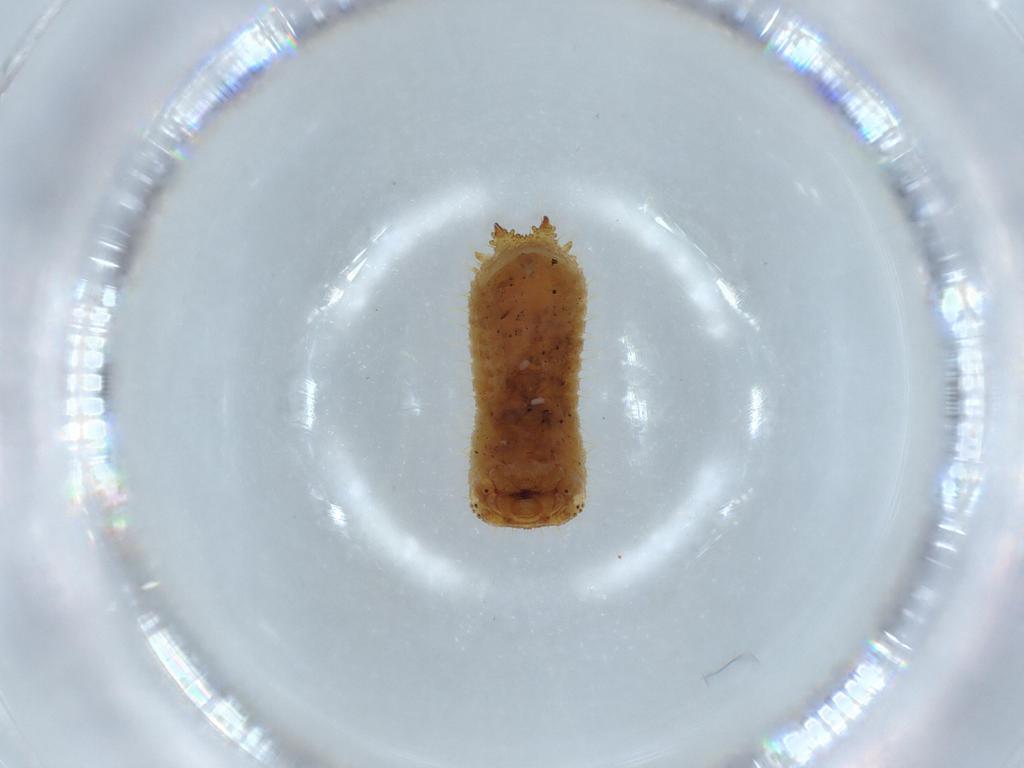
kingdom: Animalia
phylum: Arthropoda
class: Insecta
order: Coleoptera
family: Erotylidae
